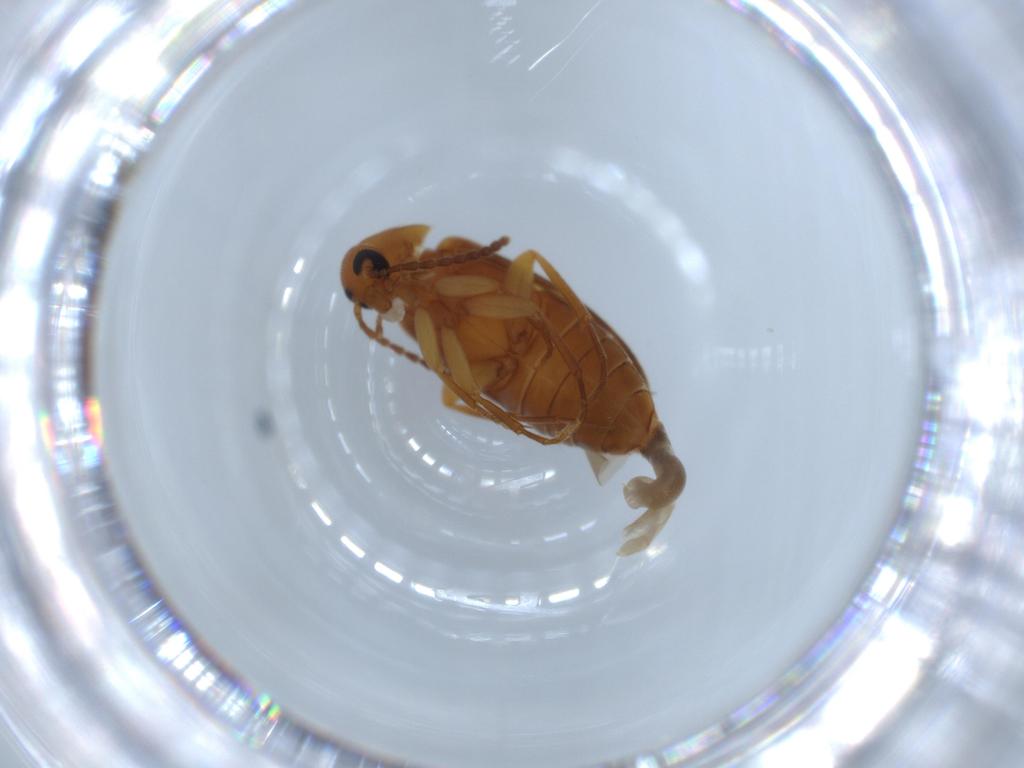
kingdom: Animalia
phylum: Arthropoda
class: Insecta
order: Coleoptera
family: Scraptiidae
